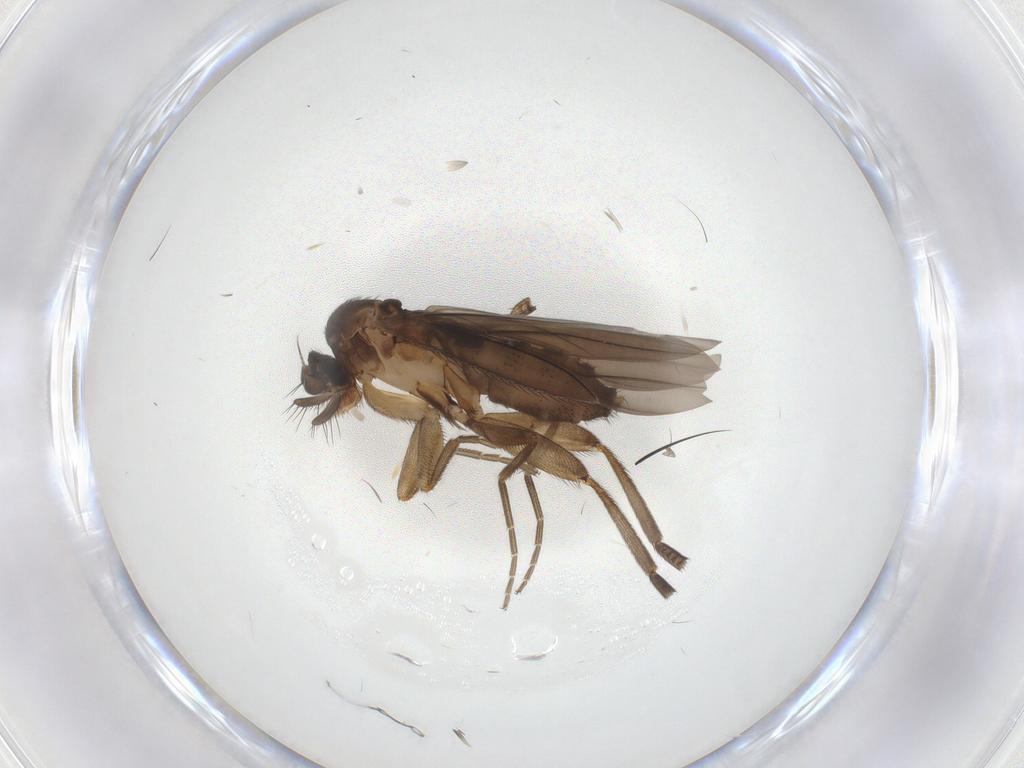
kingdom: Animalia
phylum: Arthropoda
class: Insecta
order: Diptera
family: Phoridae
